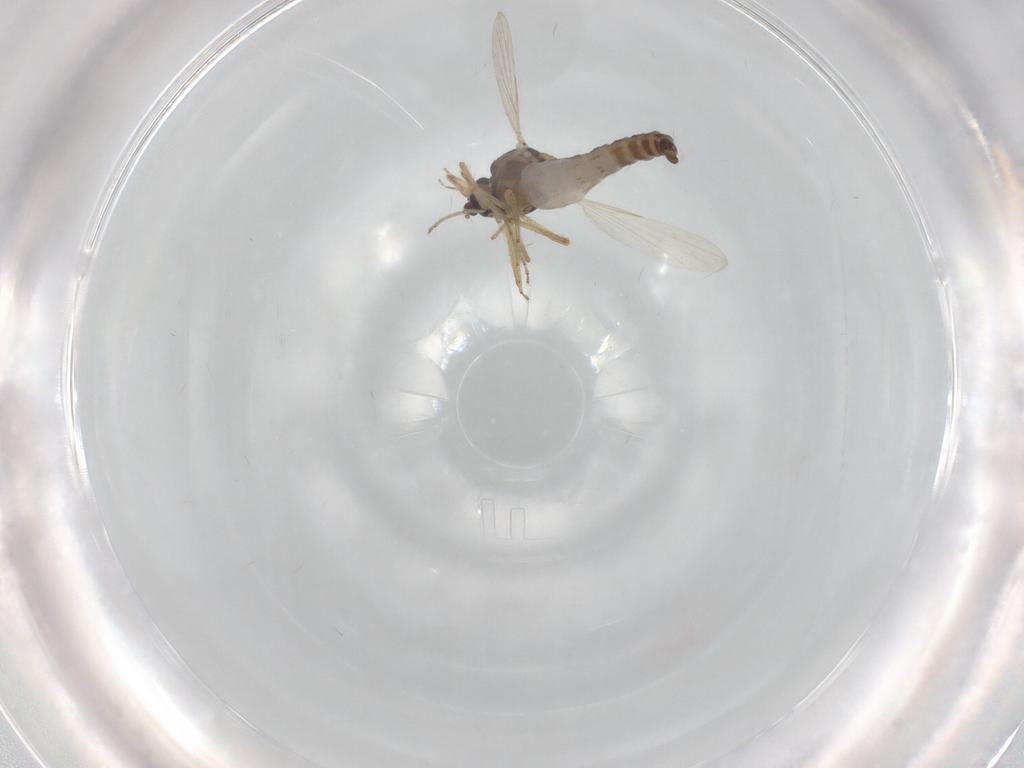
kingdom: Animalia
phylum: Arthropoda
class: Insecta
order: Diptera
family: Ceratopogonidae
